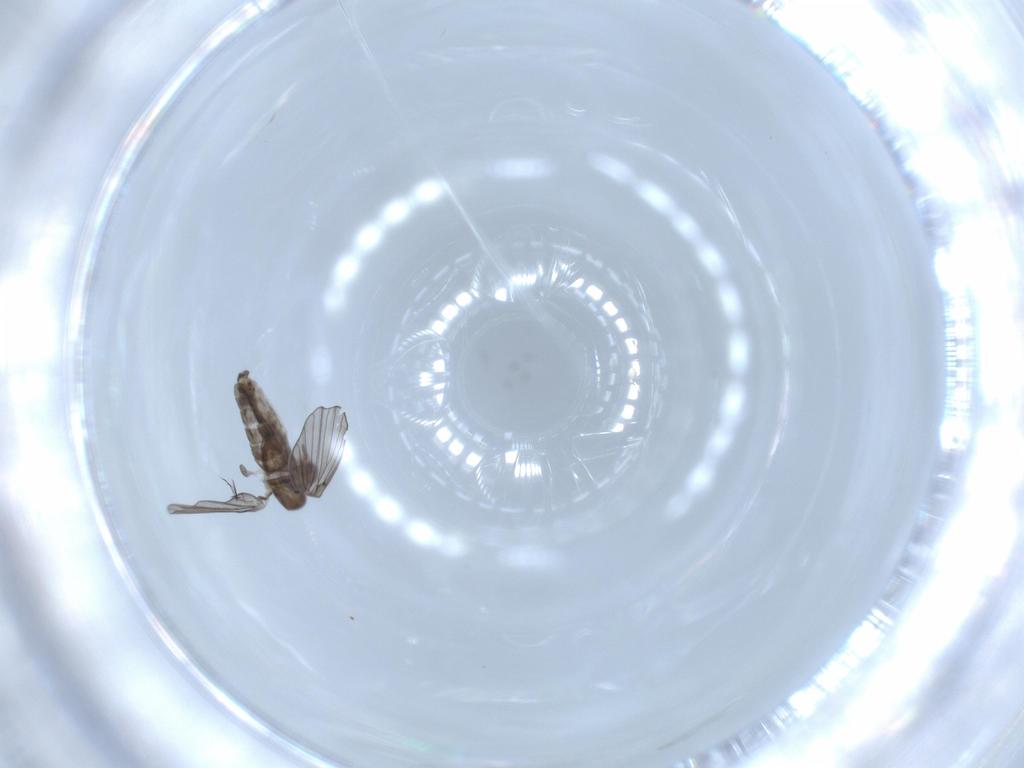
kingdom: Animalia
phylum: Arthropoda
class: Insecta
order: Diptera
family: Psychodidae
